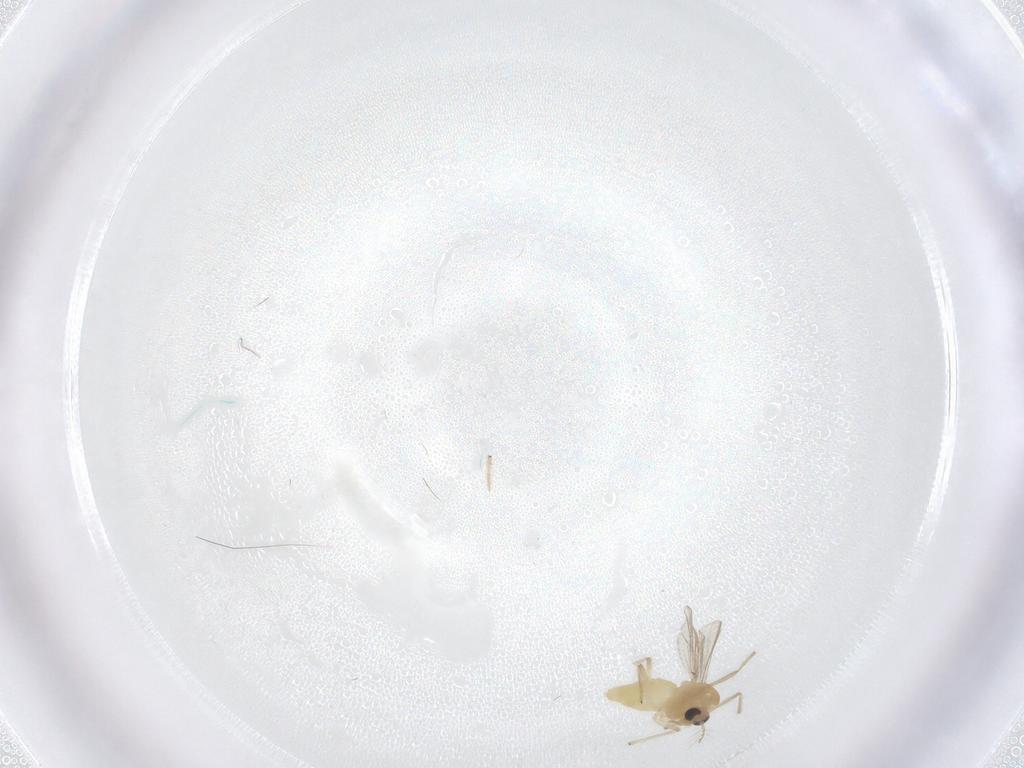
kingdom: Animalia
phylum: Arthropoda
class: Insecta
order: Diptera
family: Chironomidae
